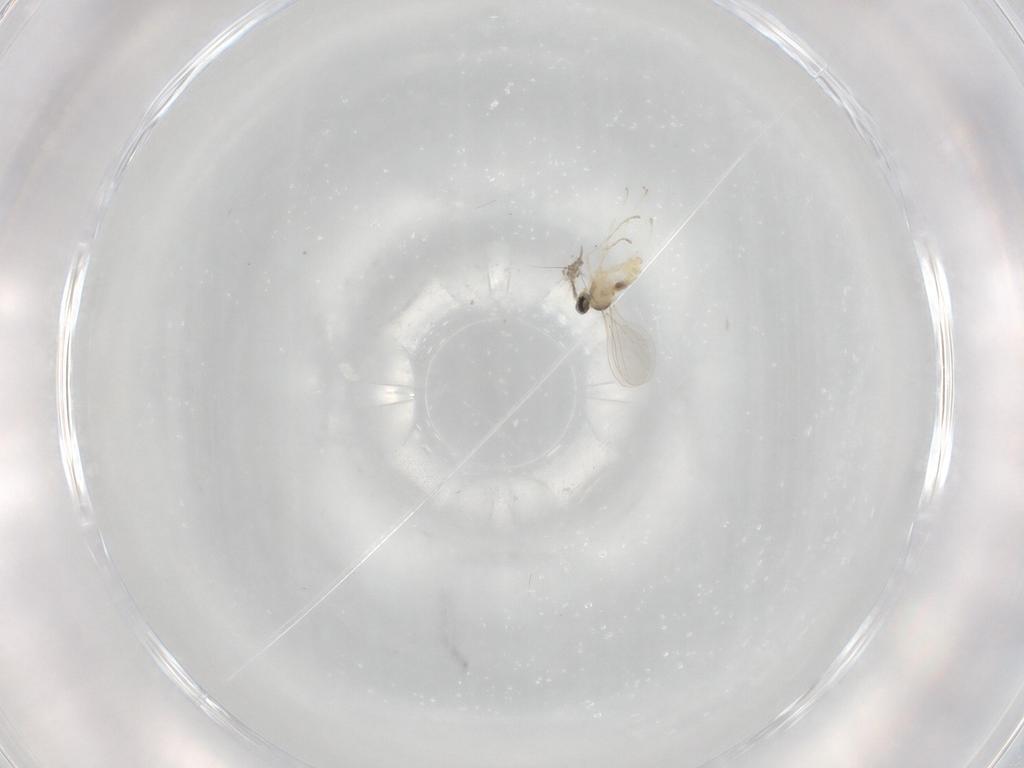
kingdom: Animalia
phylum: Arthropoda
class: Insecta
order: Diptera
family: Cecidomyiidae
